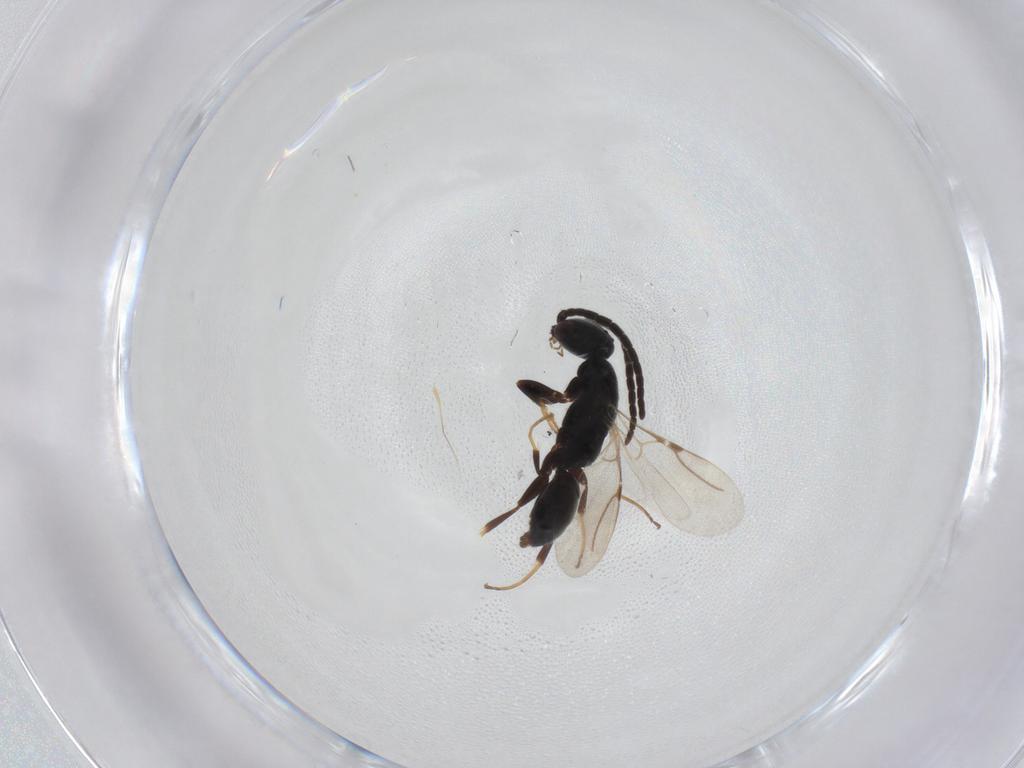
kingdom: Animalia
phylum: Arthropoda
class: Insecta
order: Hymenoptera
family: Bethylidae
